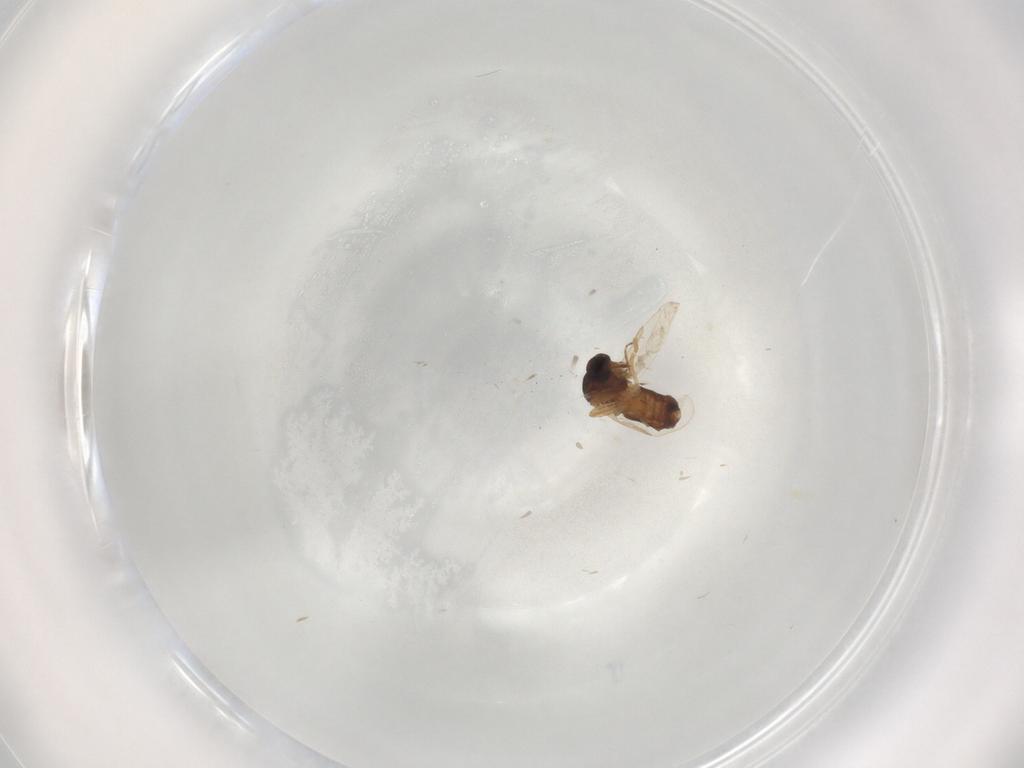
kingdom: Animalia
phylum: Arthropoda
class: Insecta
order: Diptera
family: Ceratopogonidae
